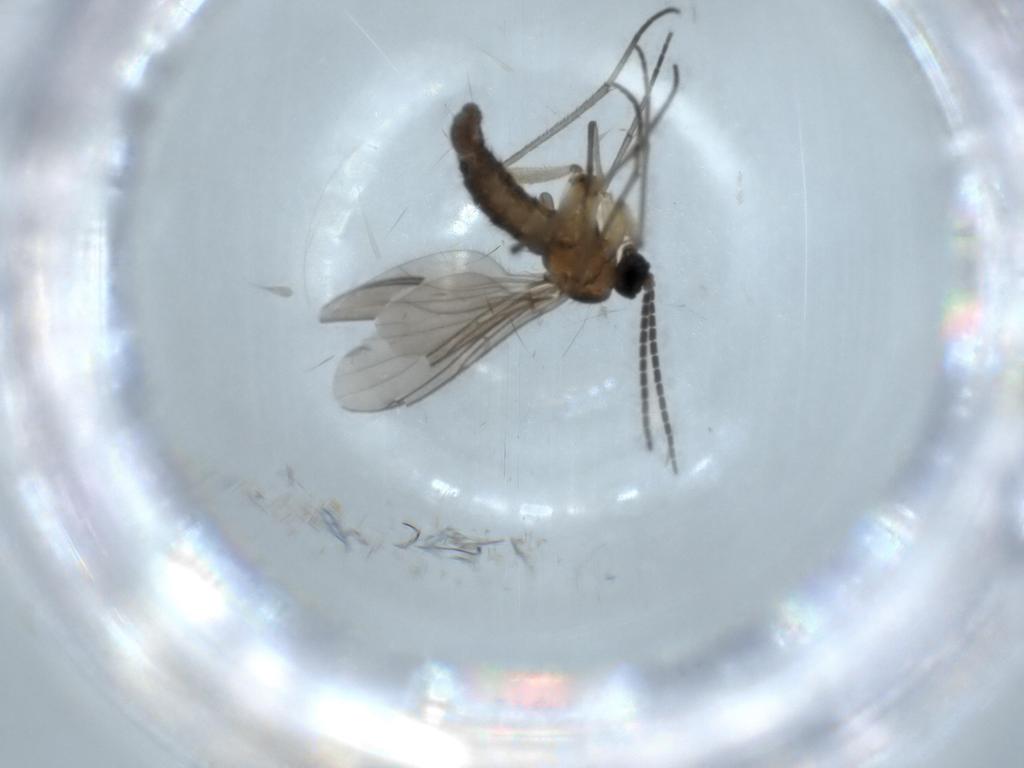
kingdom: Animalia
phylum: Arthropoda
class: Insecta
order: Diptera
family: Sciaridae
